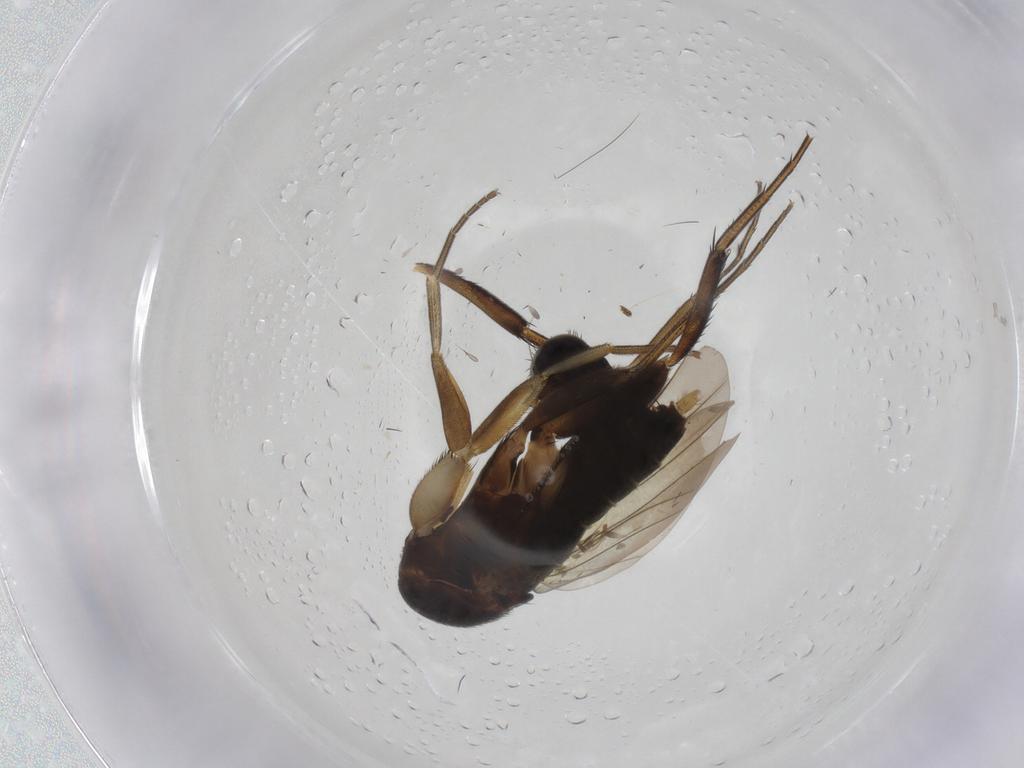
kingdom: Animalia
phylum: Arthropoda
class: Insecta
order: Diptera
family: Phoridae
